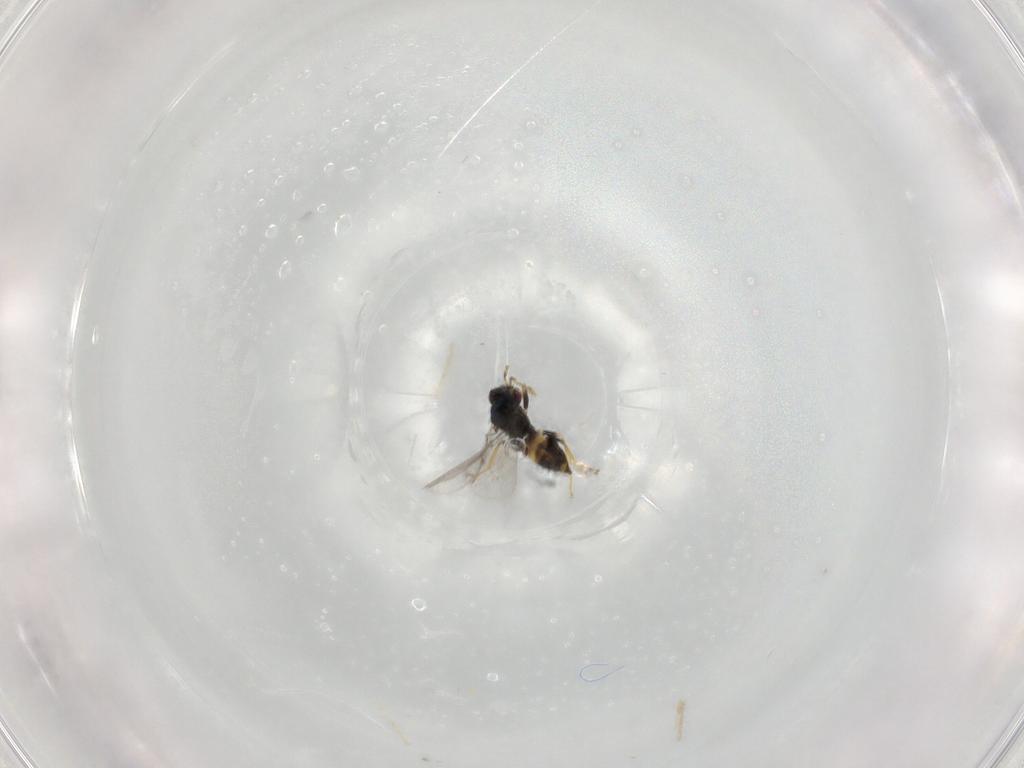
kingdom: Animalia
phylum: Arthropoda
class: Insecta
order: Hymenoptera
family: Eulophidae
